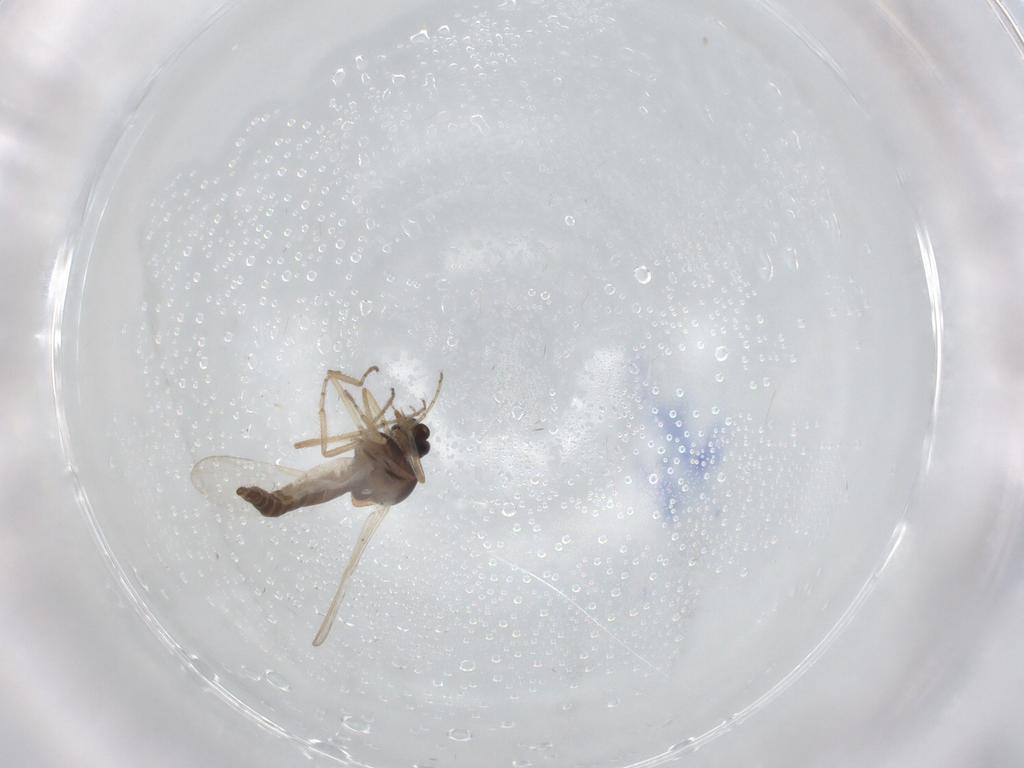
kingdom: Animalia
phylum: Arthropoda
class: Insecta
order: Diptera
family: Ceratopogonidae
